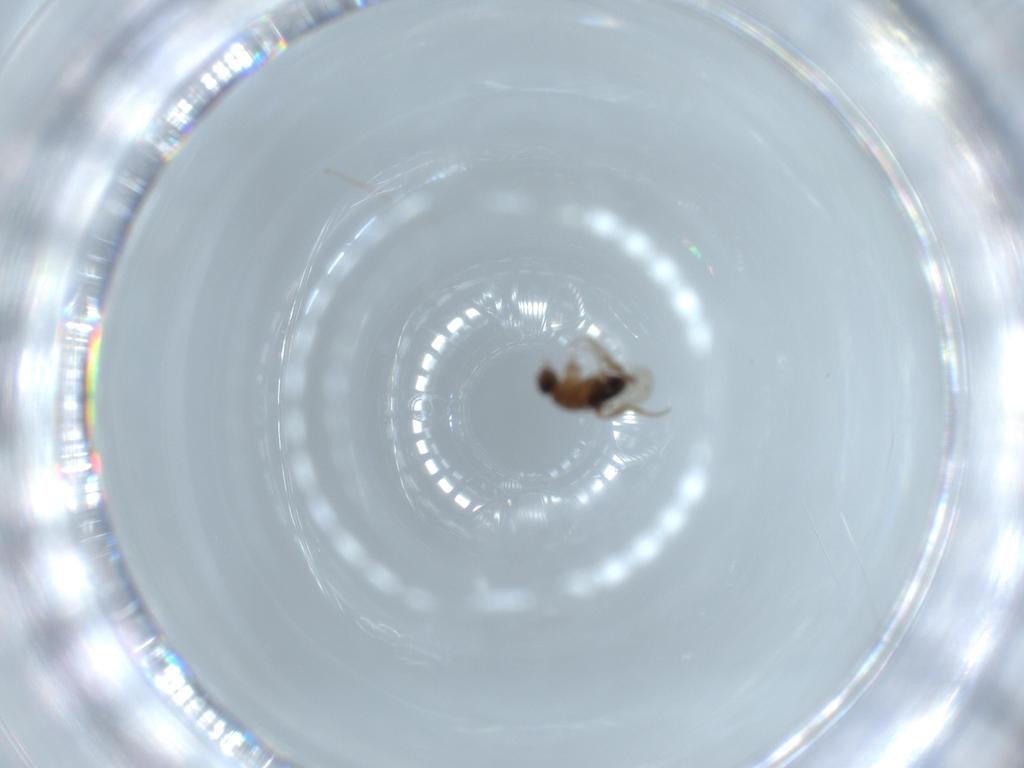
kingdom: Animalia
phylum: Arthropoda
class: Insecta
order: Diptera
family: Phoridae
